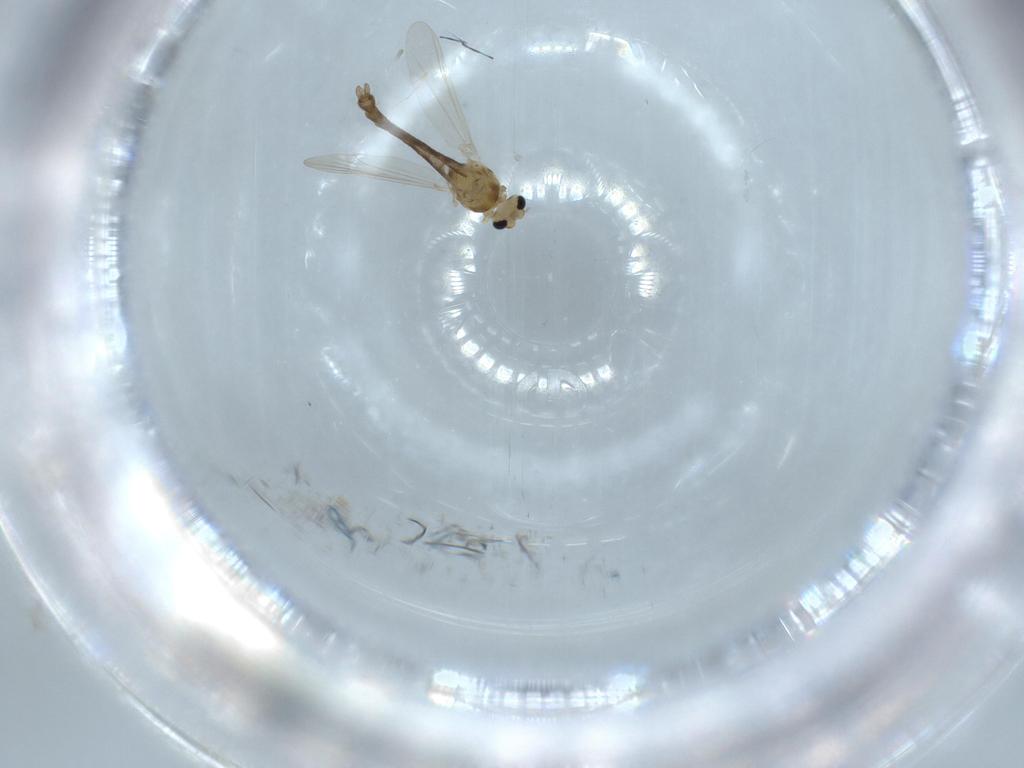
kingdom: Animalia
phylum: Arthropoda
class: Insecta
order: Diptera
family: Chironomidae
